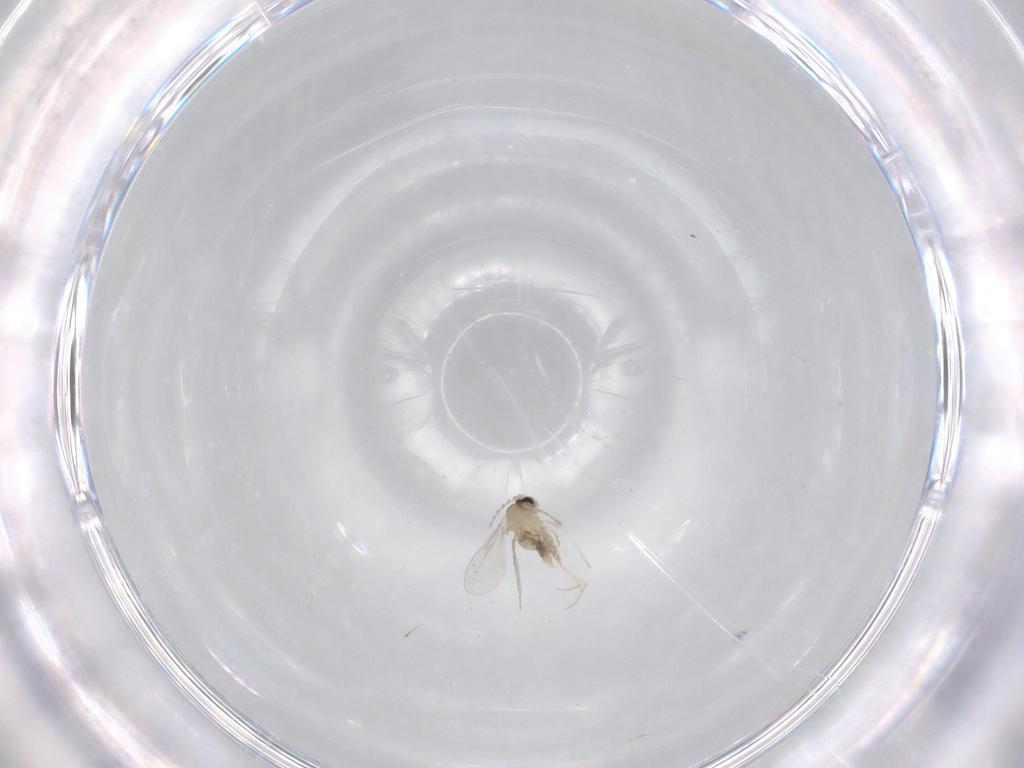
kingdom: Animalia
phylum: Arthropoda
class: Insecta
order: Diptera
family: Cecidomyiidae
